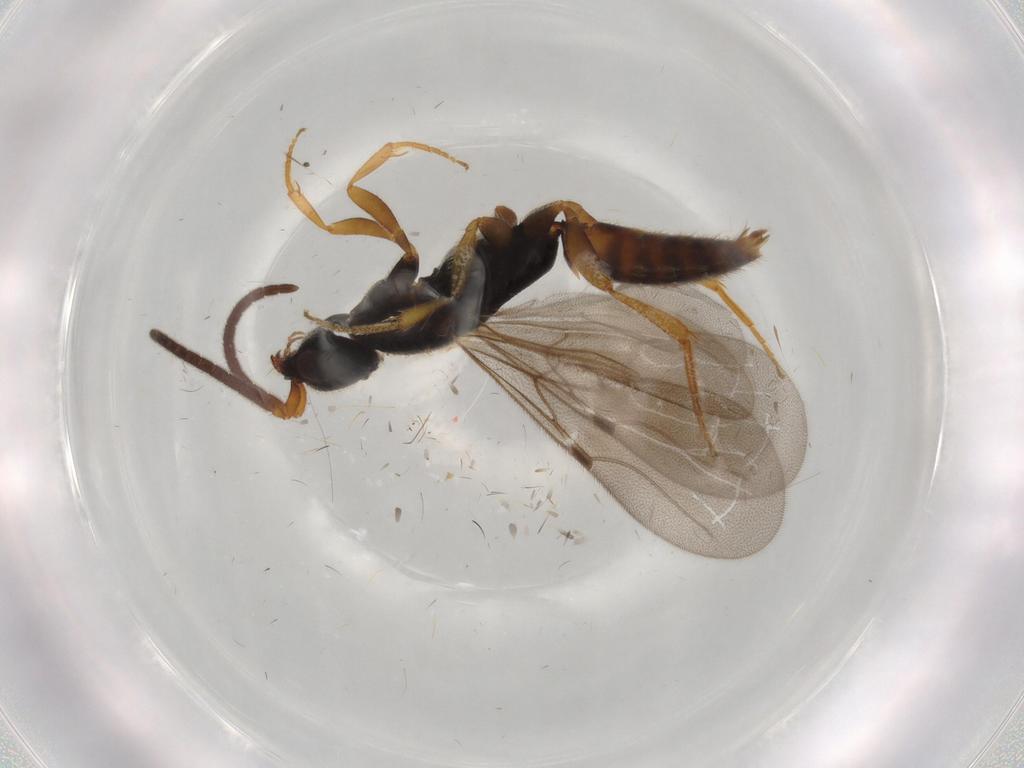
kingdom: Animalia
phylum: Arthropoda
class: Insecta
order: Hymenoptera
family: Bethylidae
